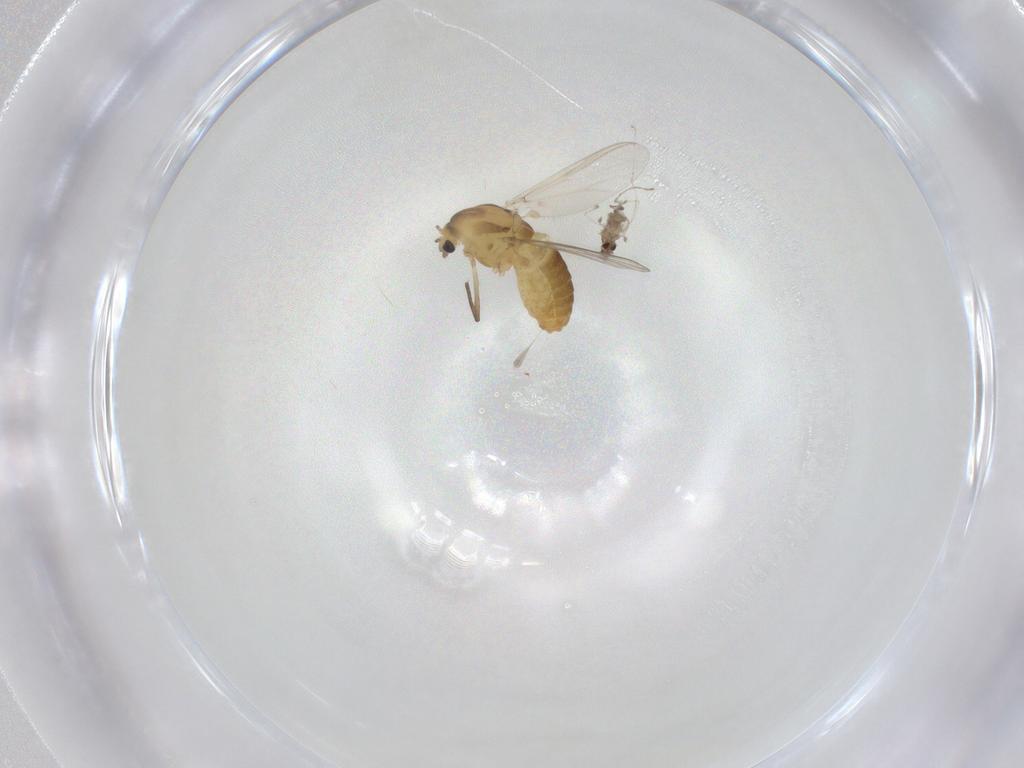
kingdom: Animalia
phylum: Arthropoda
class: Insecta
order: Diptera
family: Chironomidae
